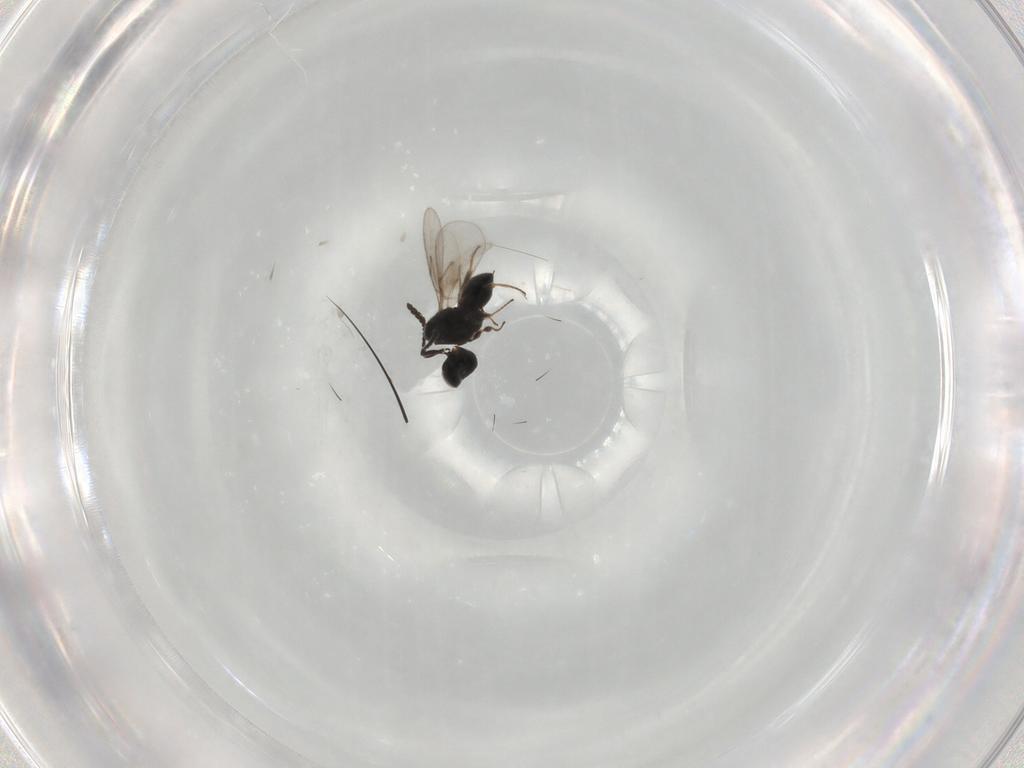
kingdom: Animalia
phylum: Arthropoda
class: Insecta
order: Hymenoptera
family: Scelionidae
